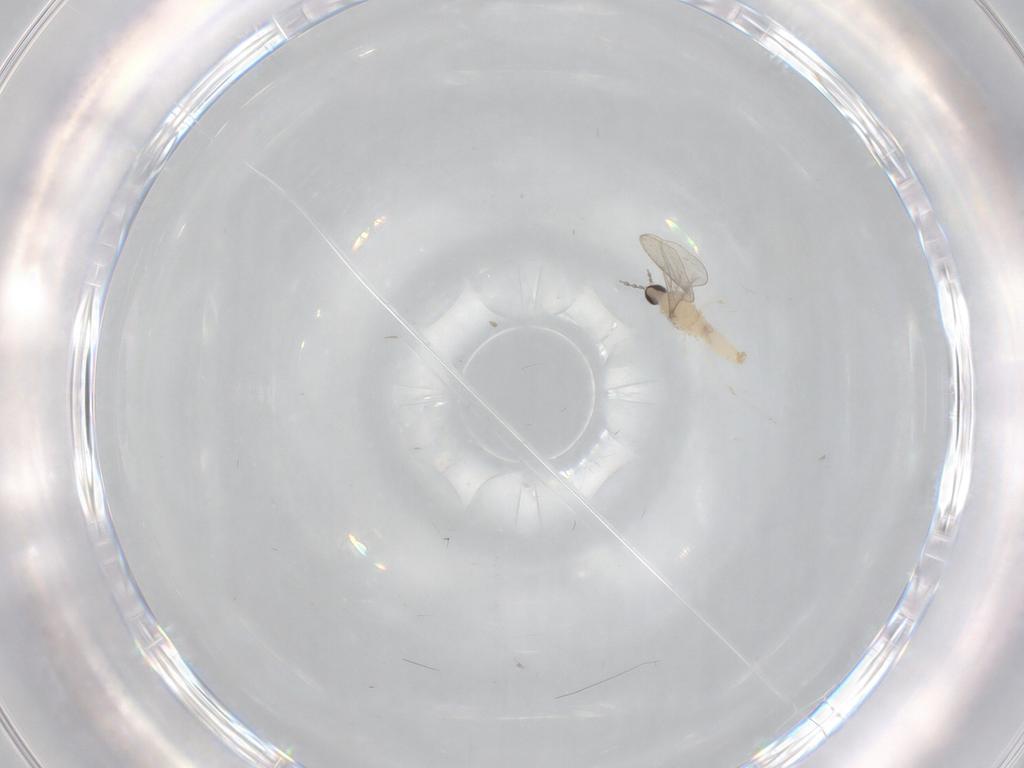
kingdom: Animalia
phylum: Arthropoda
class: Insecta
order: Diptera
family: Cecidomyiidae
